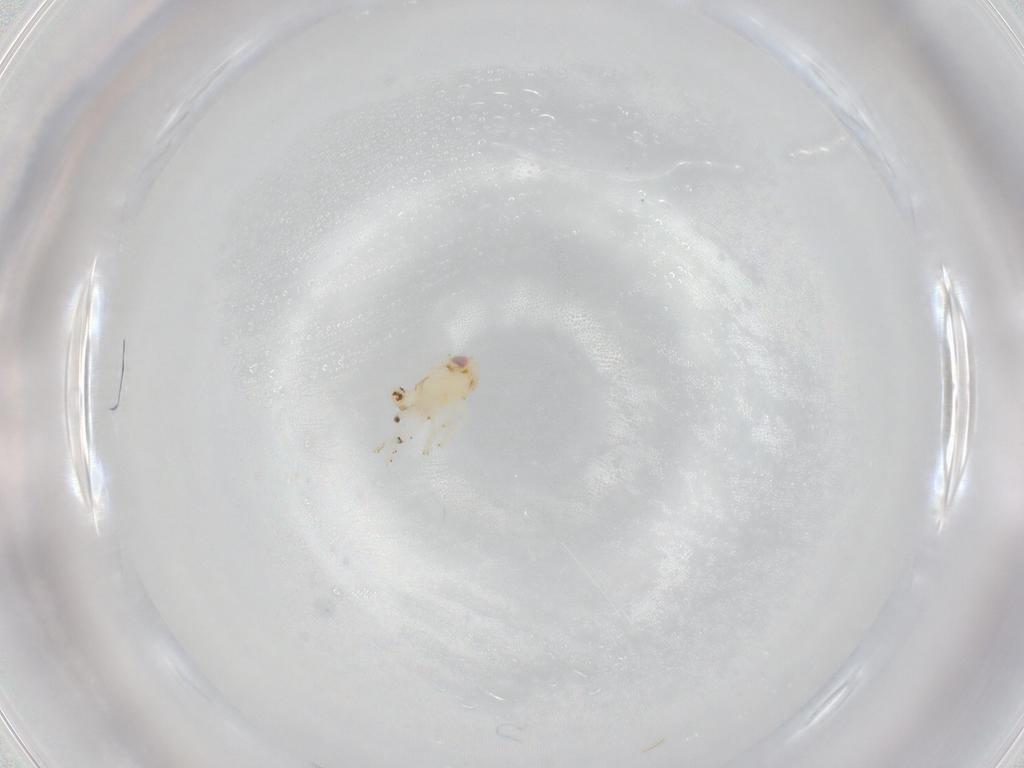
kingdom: Animalia
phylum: Arthropoda
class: Insecta
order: Hemiptera
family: Nogodinidae
